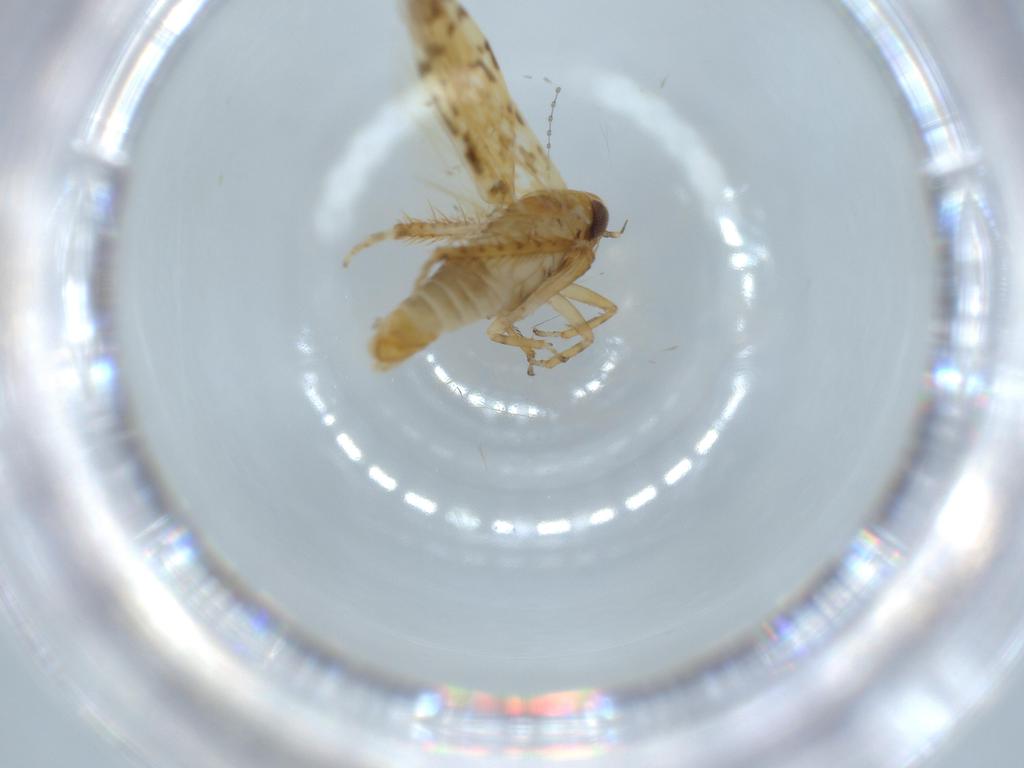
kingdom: Animalia
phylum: Arthropoda
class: Insecta
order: Hemiptera
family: Cicadellidae
